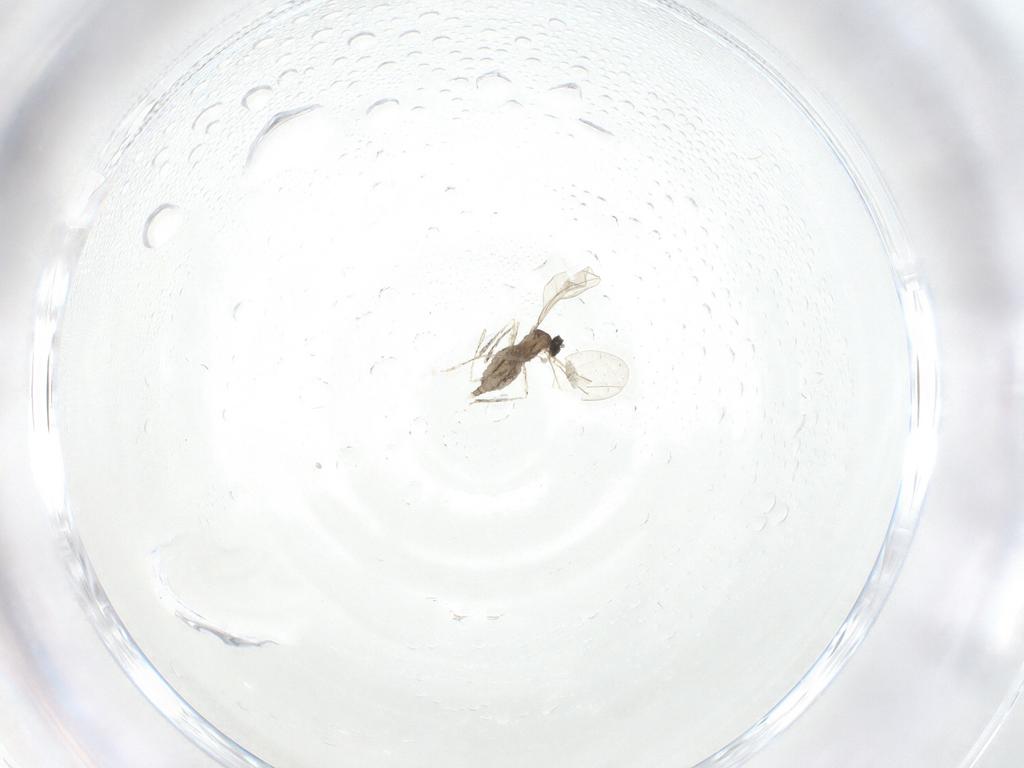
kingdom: Animalia
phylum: Arthropoda
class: Insecta
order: Diptera
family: Cecidomyiidae
